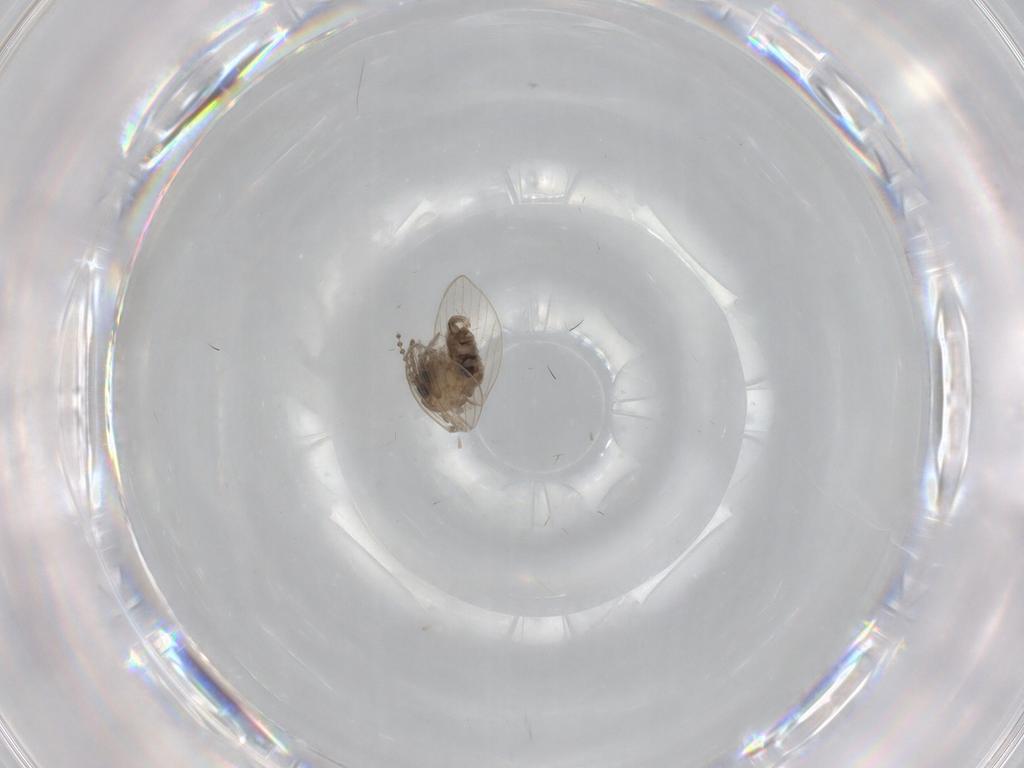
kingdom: Animalia
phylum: Arthropoda
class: Insecta
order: Diptera
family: Psychodidae
